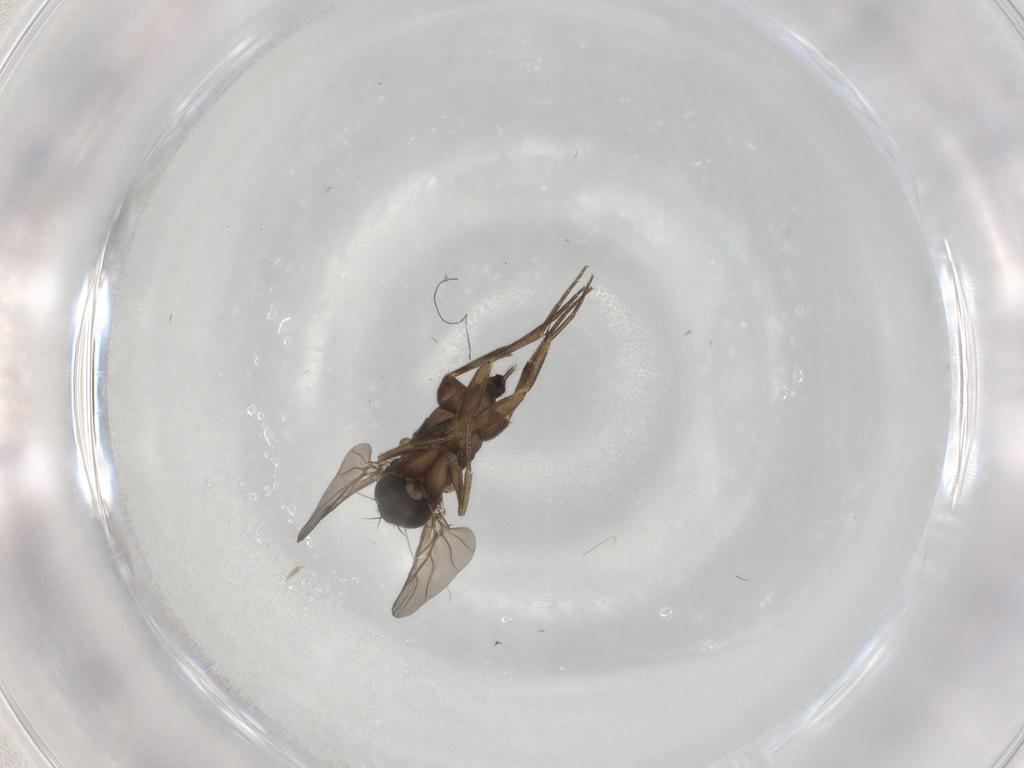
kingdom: Animalia
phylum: Arthropoda
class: Insecta
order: Diptera
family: Phoridae
